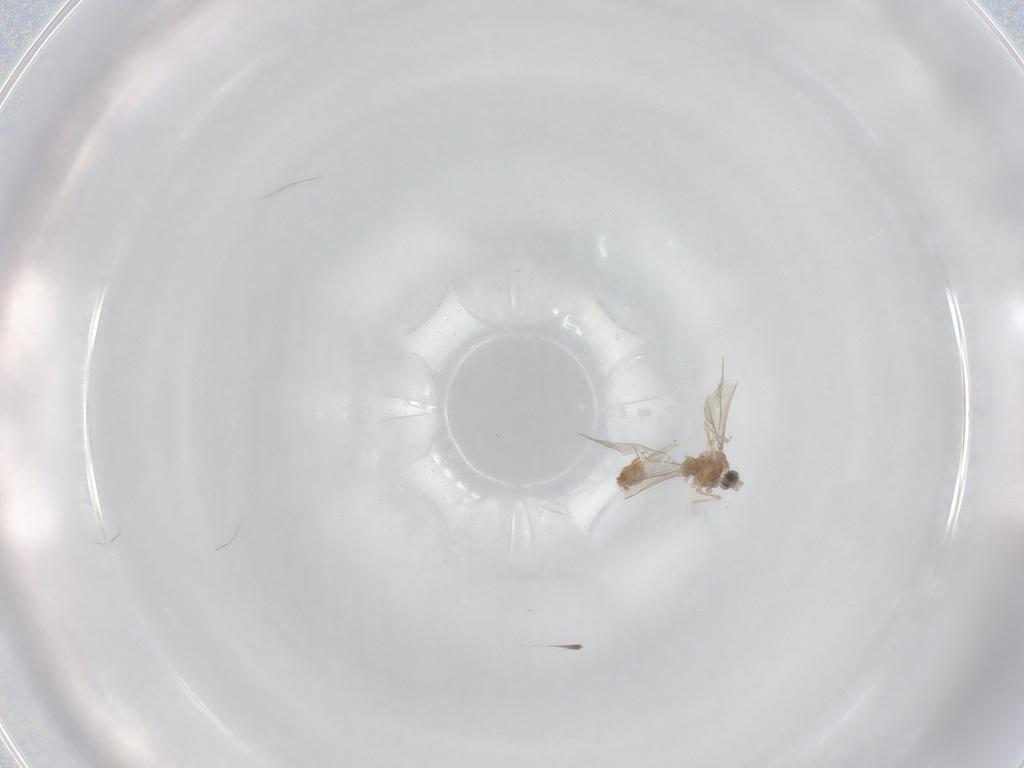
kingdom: Animalia
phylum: Arthropoda
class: Insecta
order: Diptera
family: Cecidomyiidae
